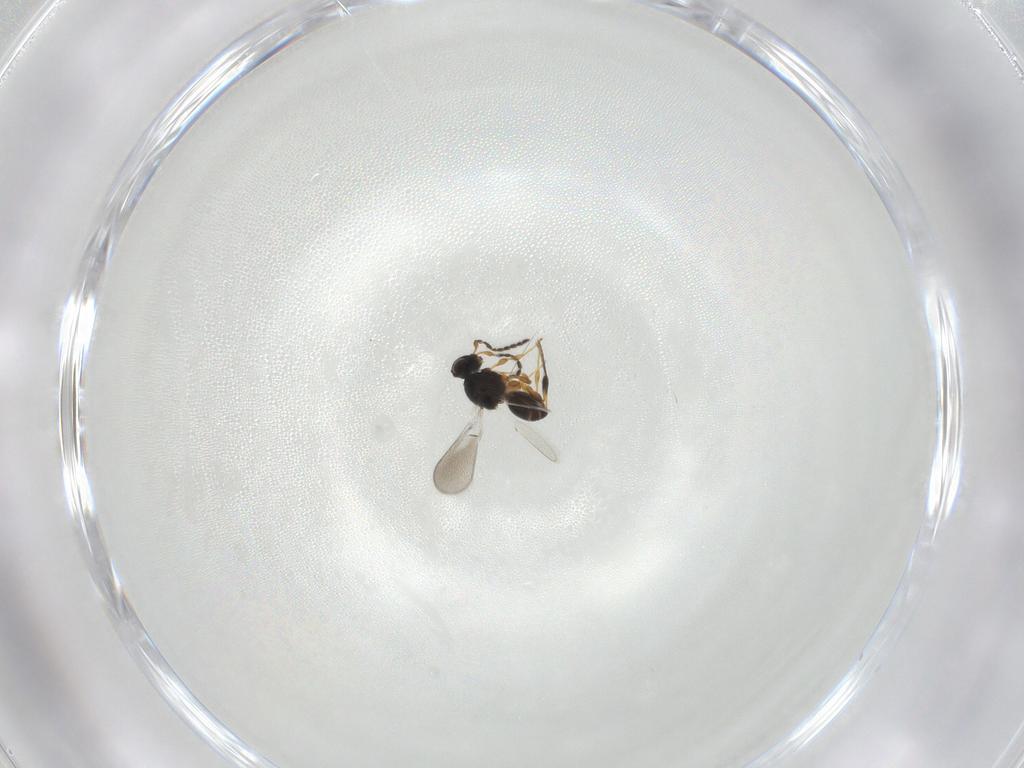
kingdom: Animalia
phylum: Arthropoda
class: Insecta
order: Hymenoptera
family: Platygastridae
